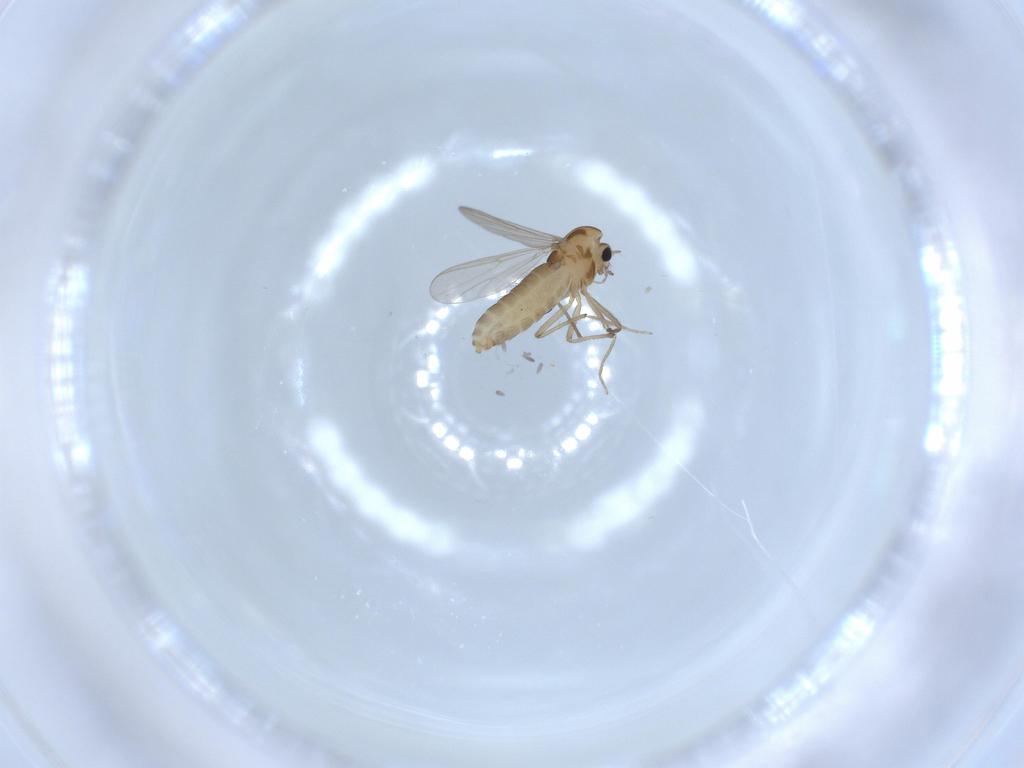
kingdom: Animalia
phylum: Arthropoda
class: Insecta
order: Diptera
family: Chironomidae
